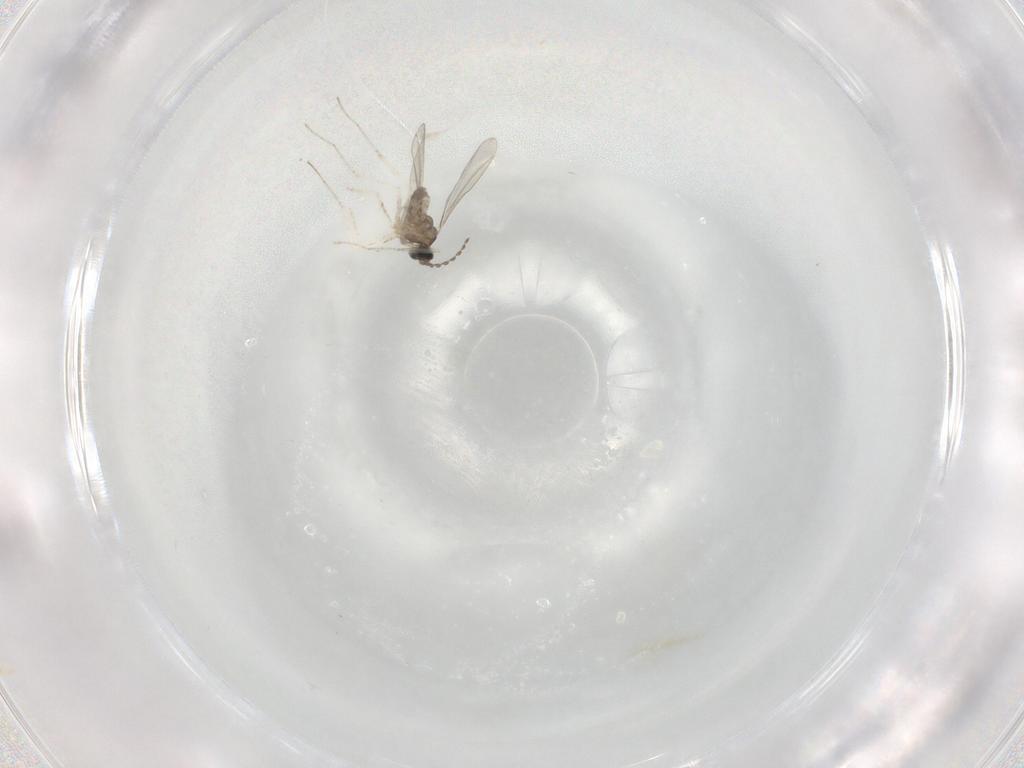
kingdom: Animalia
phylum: Arthropoda
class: Insecta
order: Diptera
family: Cecidomyiidae
